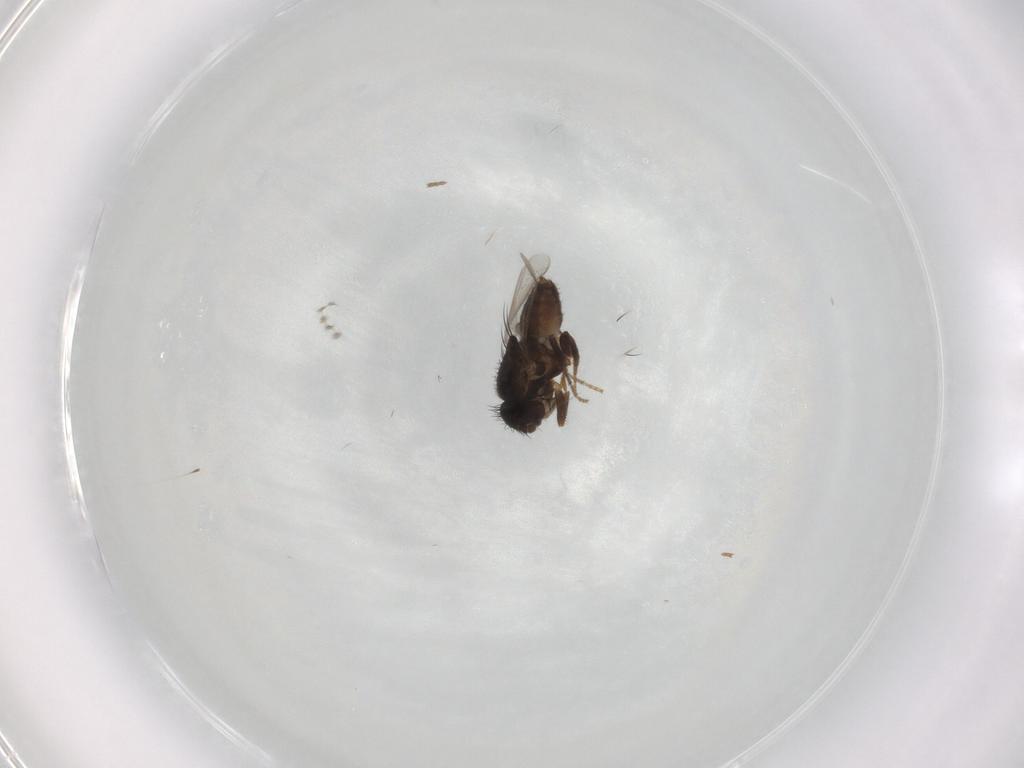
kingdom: Animalia
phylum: Arthropoda
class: Insecta
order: Diptera
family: Sphaeroceridae
